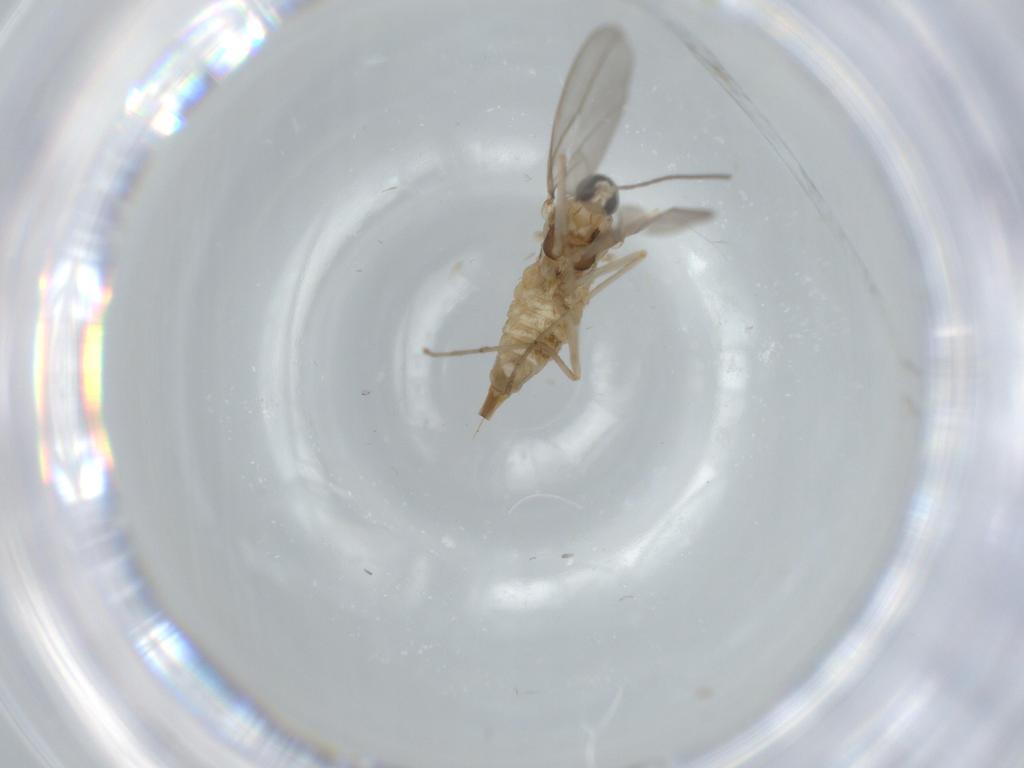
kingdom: Animalia
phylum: Arthropoda
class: Insecta
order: Diptera
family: Cecidomyiidae
